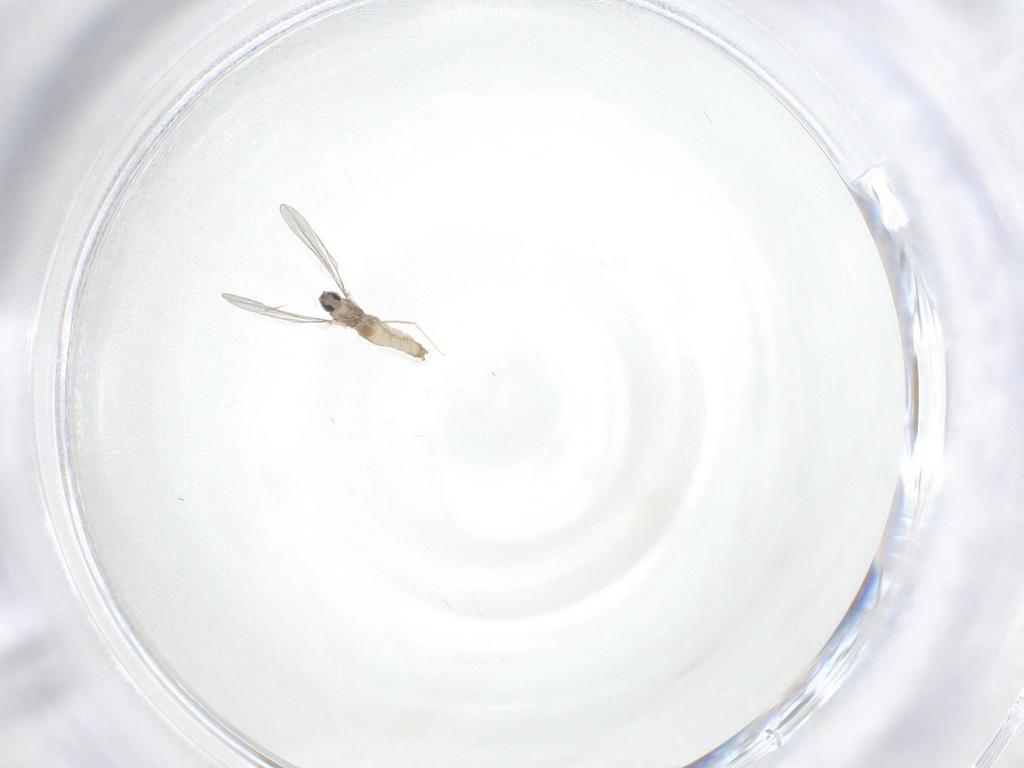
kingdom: Animalia
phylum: Arthropoda
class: Insecta
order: Diptera
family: Cecidomyiidae
